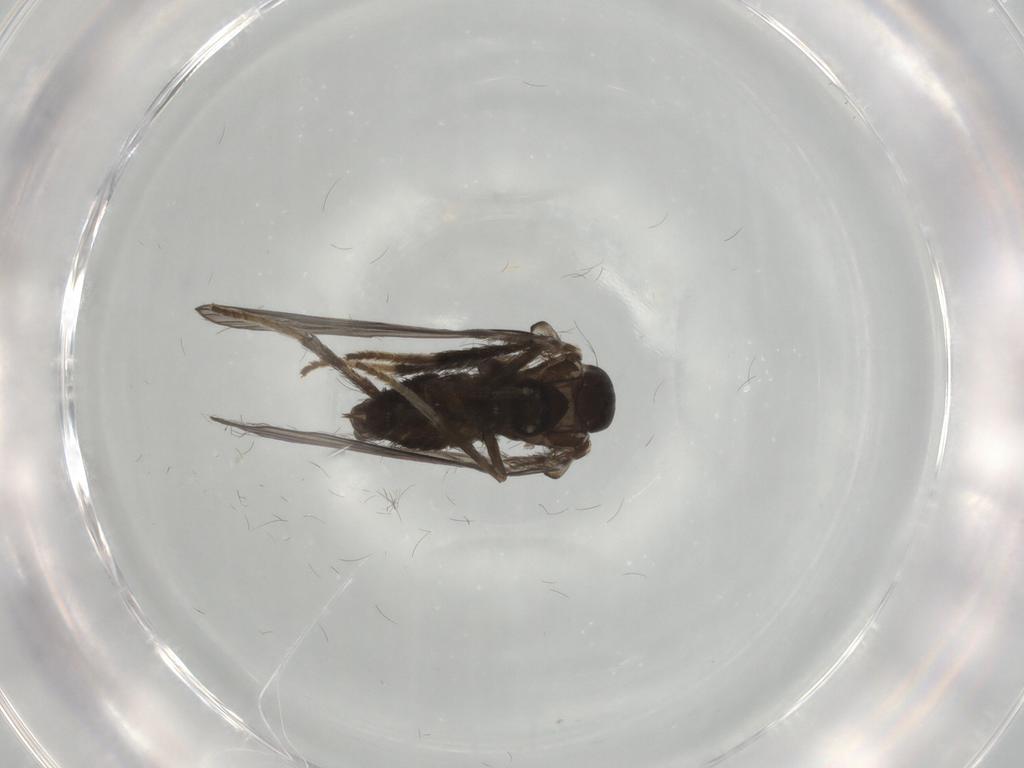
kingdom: Animalia
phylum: Arthropoda
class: Insecta
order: Diptera
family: Psychodidae
